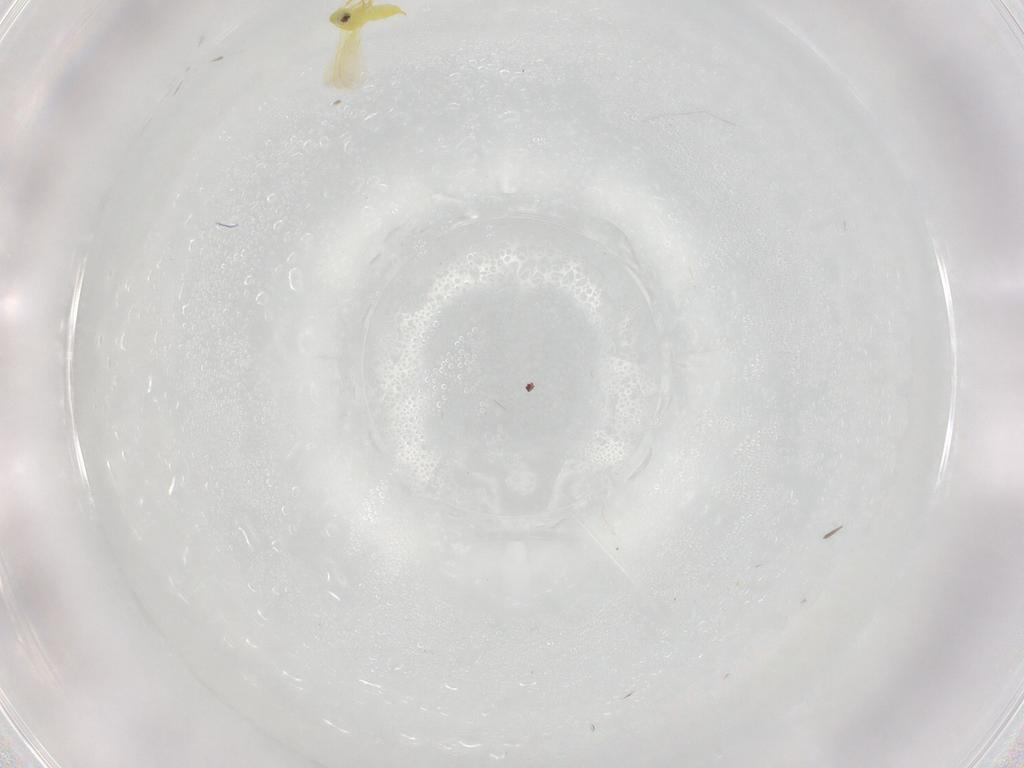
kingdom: Animalia
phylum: Arthropoda
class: Insecta
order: Hemiptera
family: Aleyrodidae
